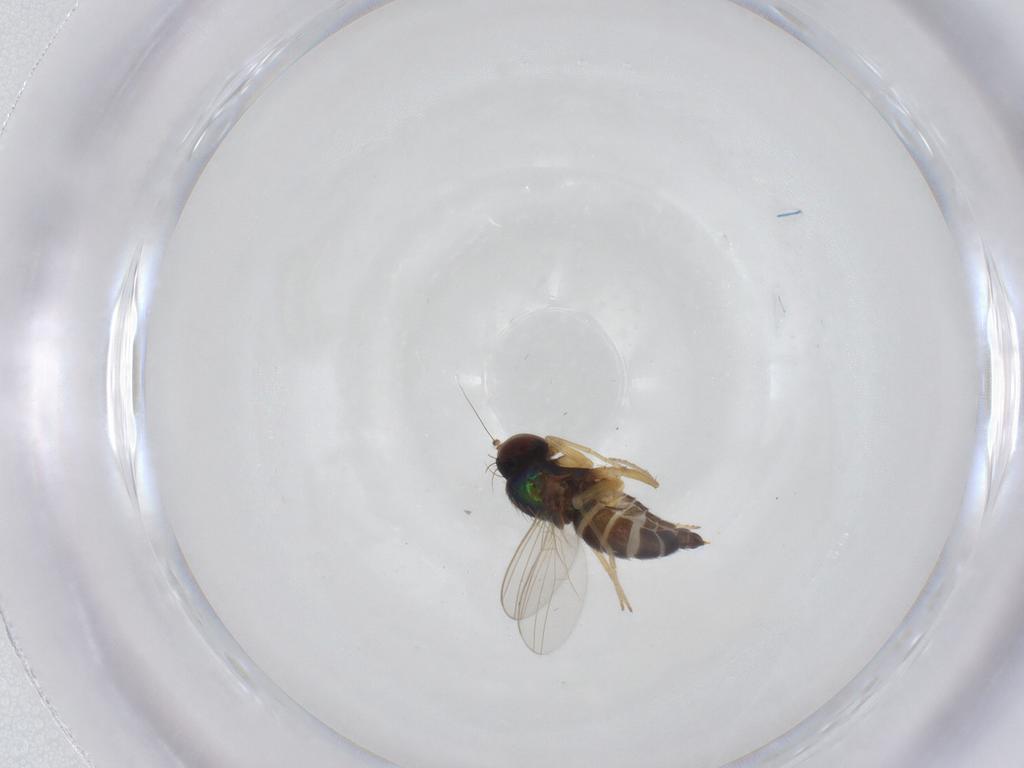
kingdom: Animalia
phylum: Arthropoda
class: Insecta
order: Diptera
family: Dolichopodidae
